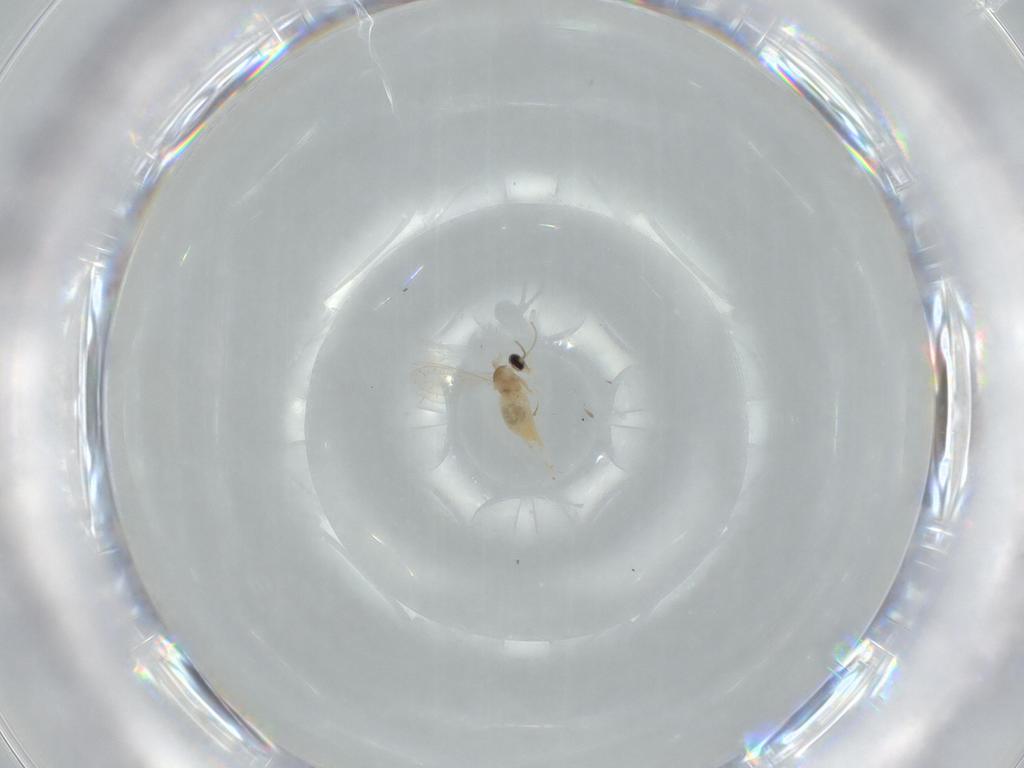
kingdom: Animalia
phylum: Arthropoda
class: Insecta
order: Diptera
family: Cecidomyiidae
